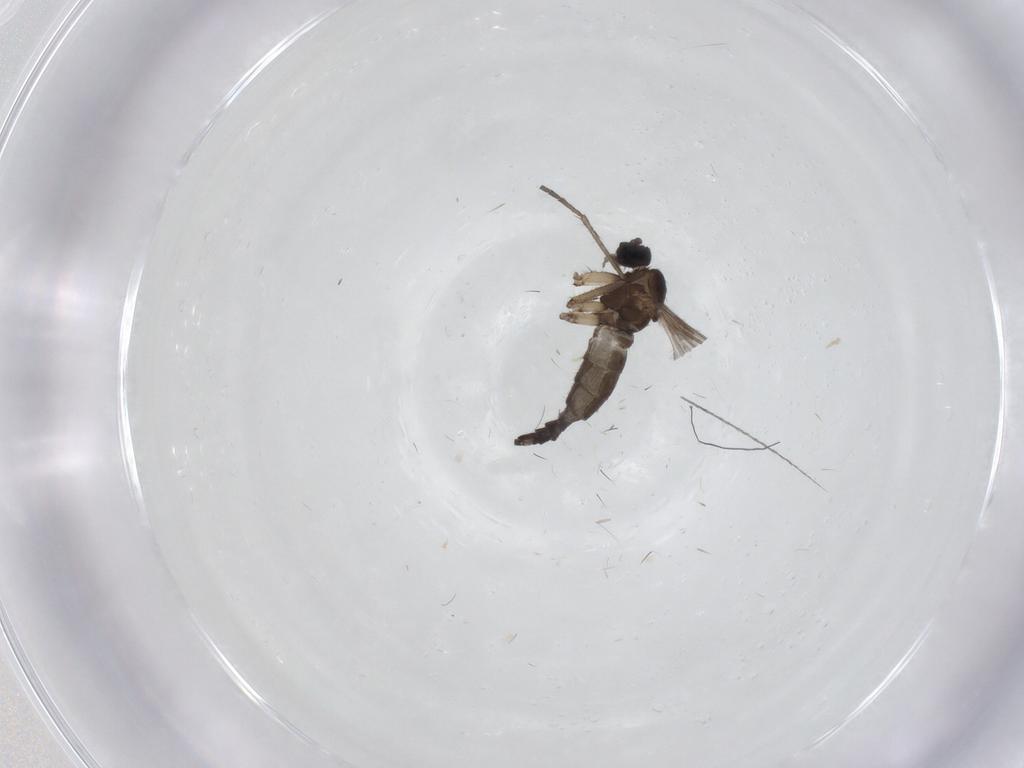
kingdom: Animalia
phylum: Arthropoda
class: Insecta
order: Diptera
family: Sciaridae
